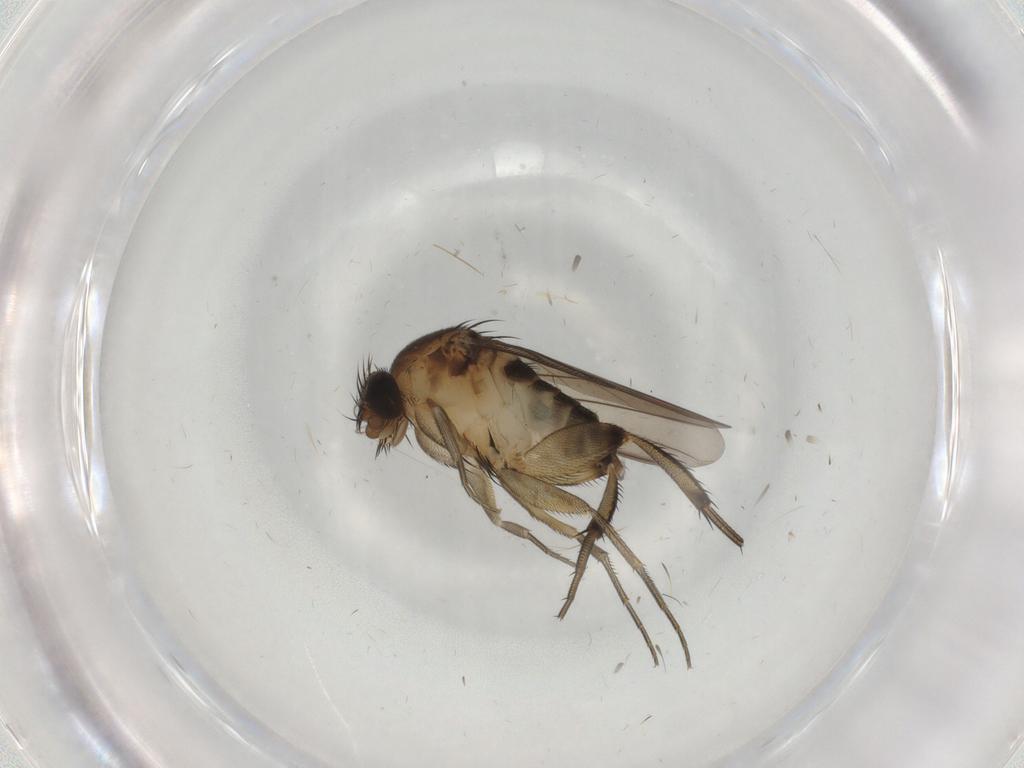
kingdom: Animalia
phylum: Arthropoda
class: Insecta
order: Diptera
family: Phoridae
